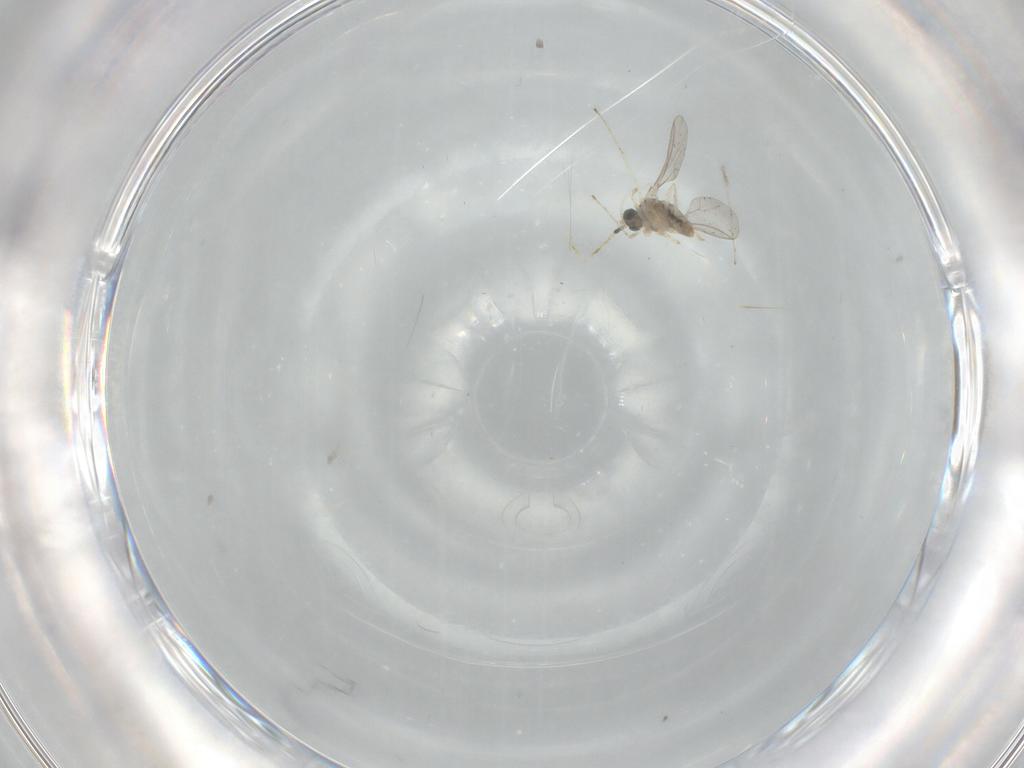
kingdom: Animalia
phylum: Arthropoda
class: Insecta
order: Diptera
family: Cecidomyiidae
